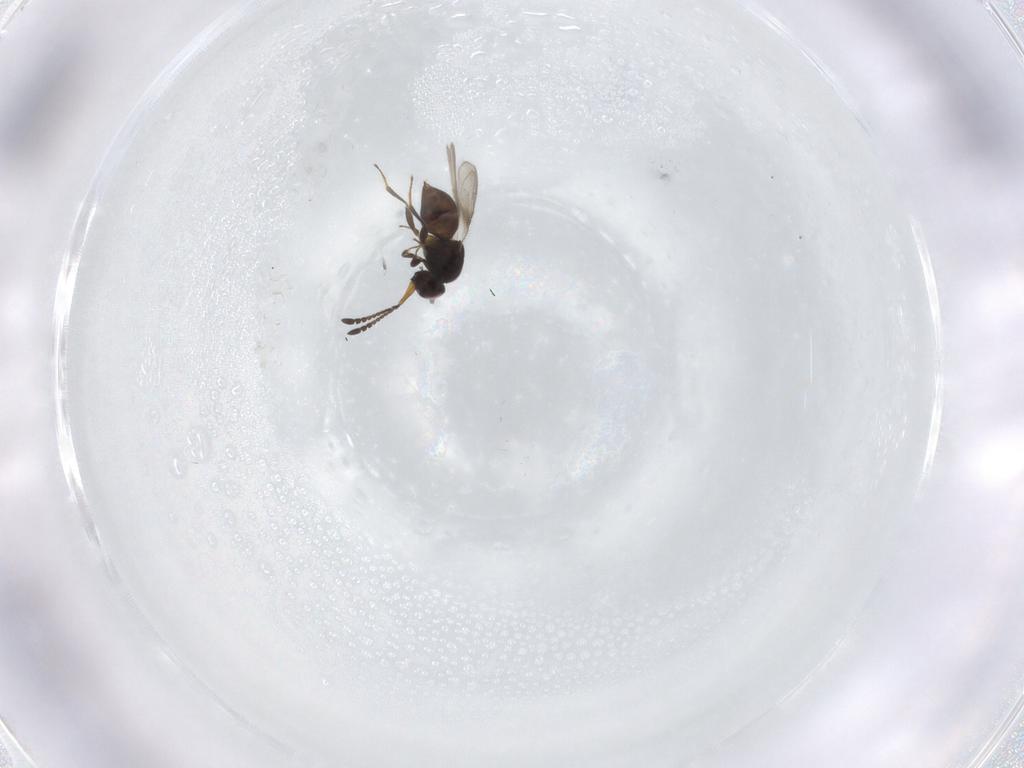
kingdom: Animalia
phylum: Arthropoda
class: Insecta
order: Hymenoptera
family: Ceraphronidae
